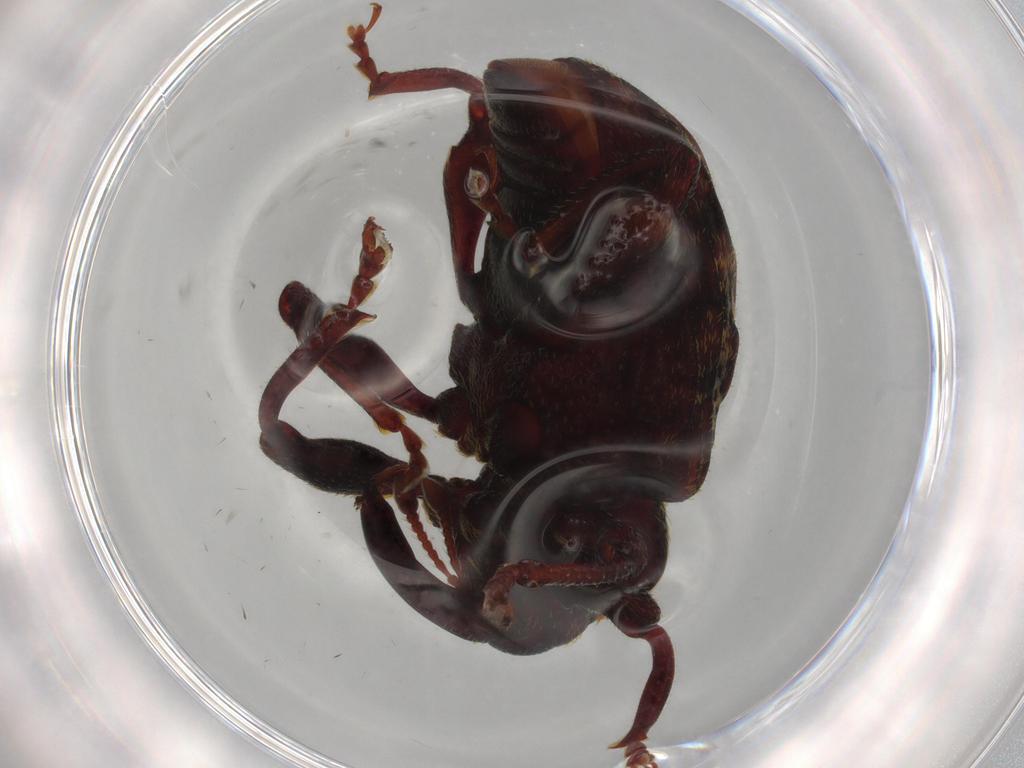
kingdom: Animalia
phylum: Arthropoda
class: Insecta
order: Coleoptera
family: Curculionidae
